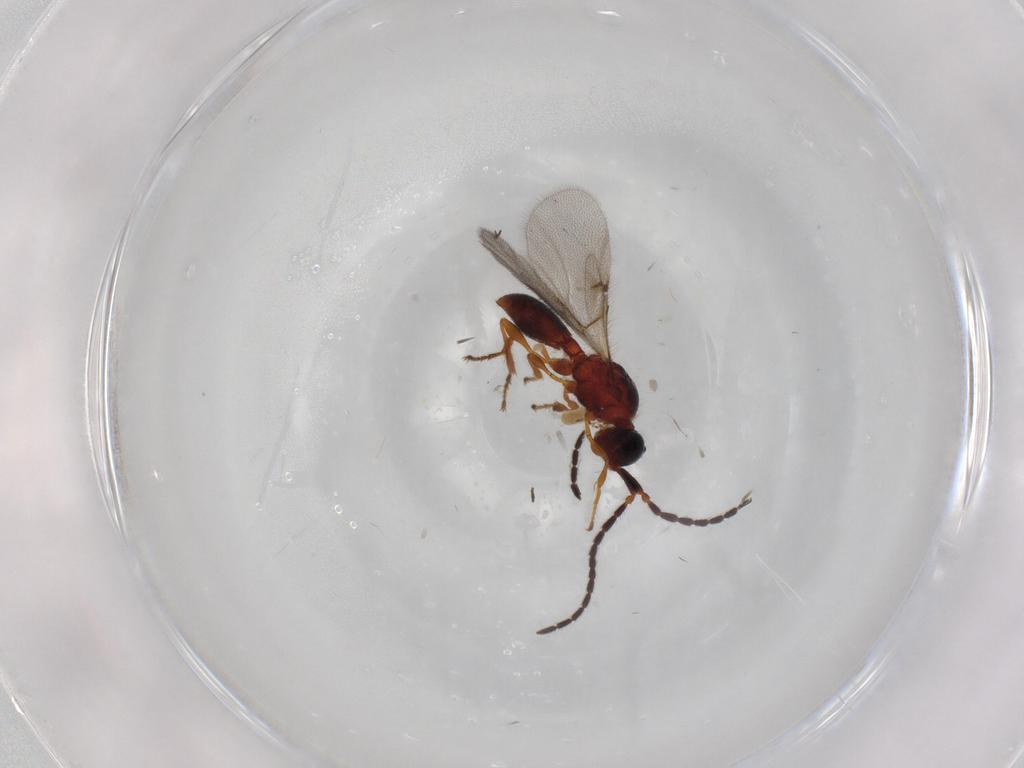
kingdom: Animalia
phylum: Arthropoda
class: Insecta
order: Hymenoptera
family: Diapriidae
